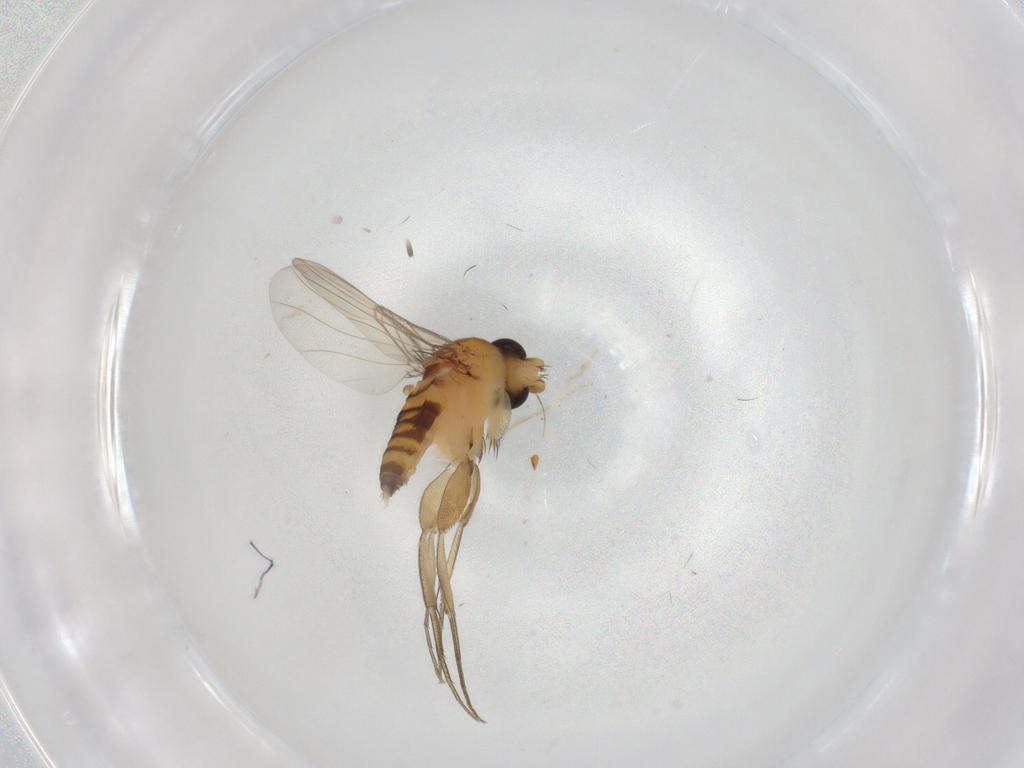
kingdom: Animalia
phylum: Arthropoda
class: Insecta
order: Diptera
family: Phoridae
